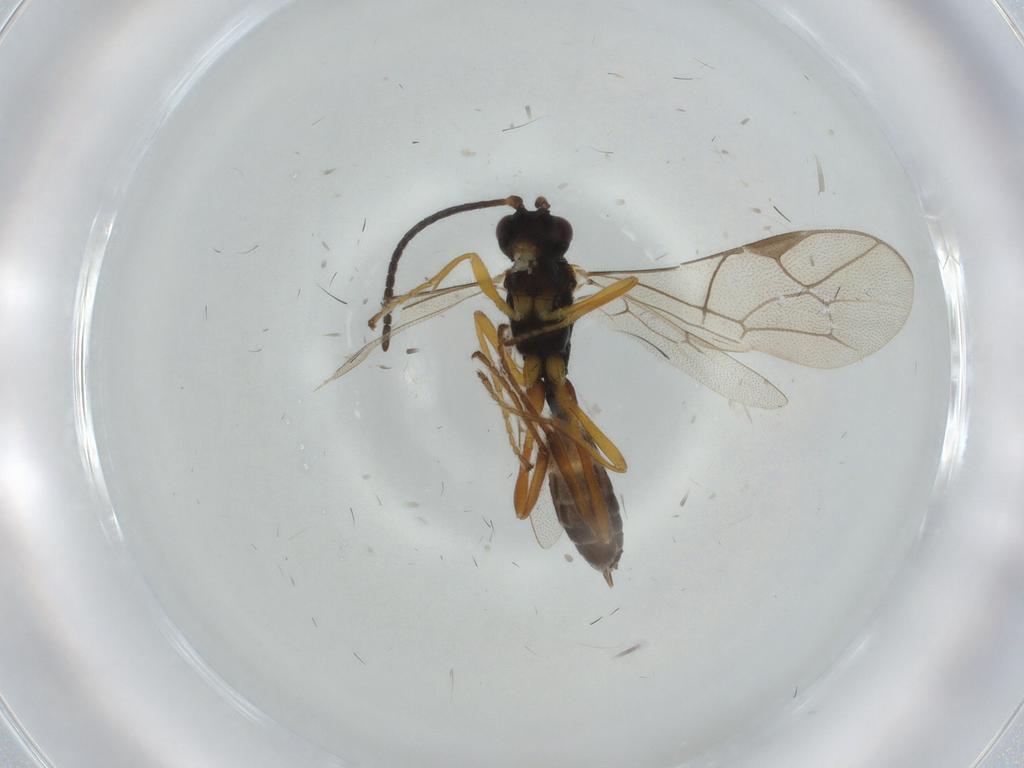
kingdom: Animalia
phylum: Arthropoda
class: Insecta
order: Hymenoptera
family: Ichneumonidae
